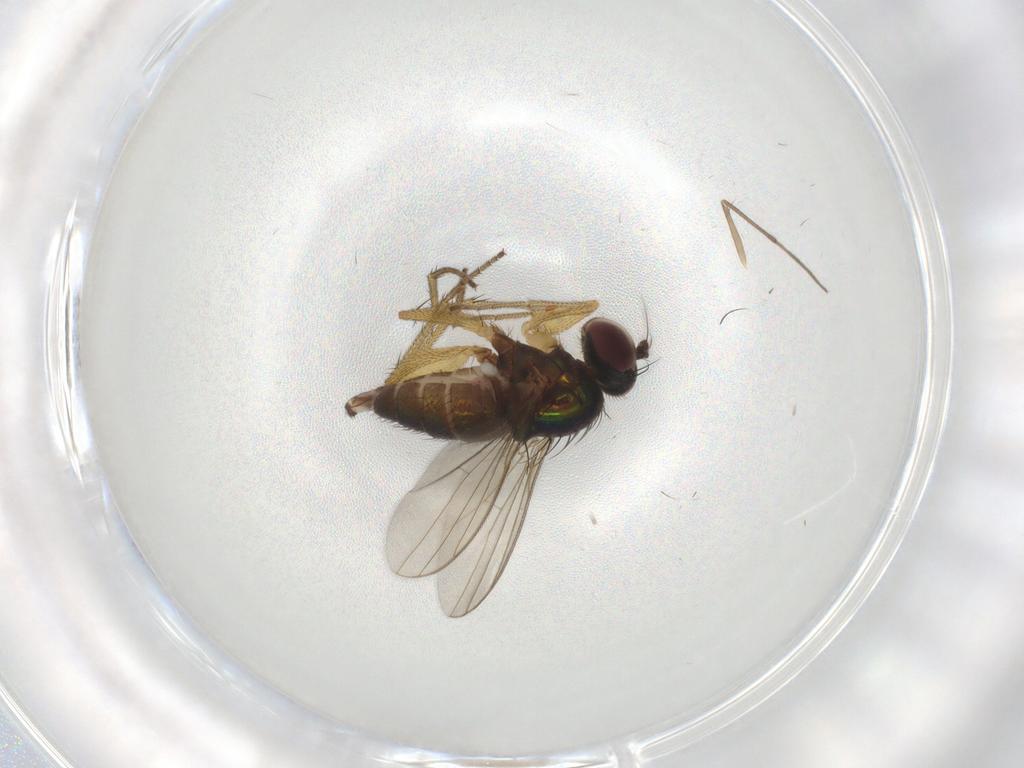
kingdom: Animalia
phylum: Arthropoda
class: Insecta
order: Diptera
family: Dolichopodidae
